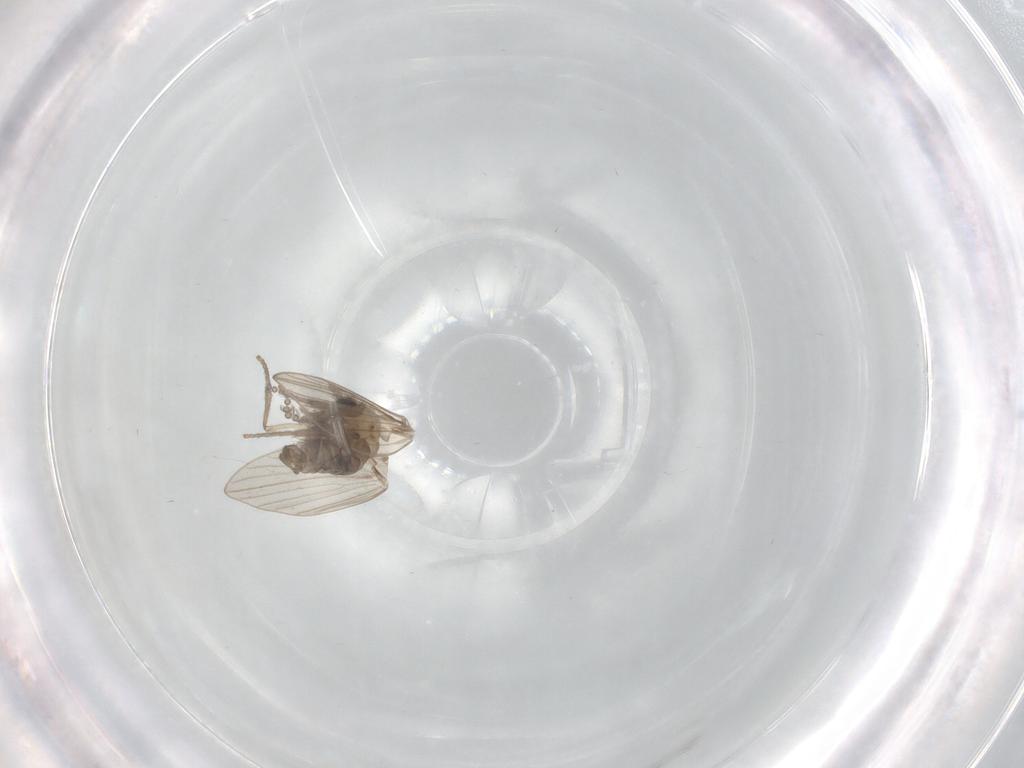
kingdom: Animalia
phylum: Arthropoda
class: Insecta
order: Diptera
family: Psychodidae
